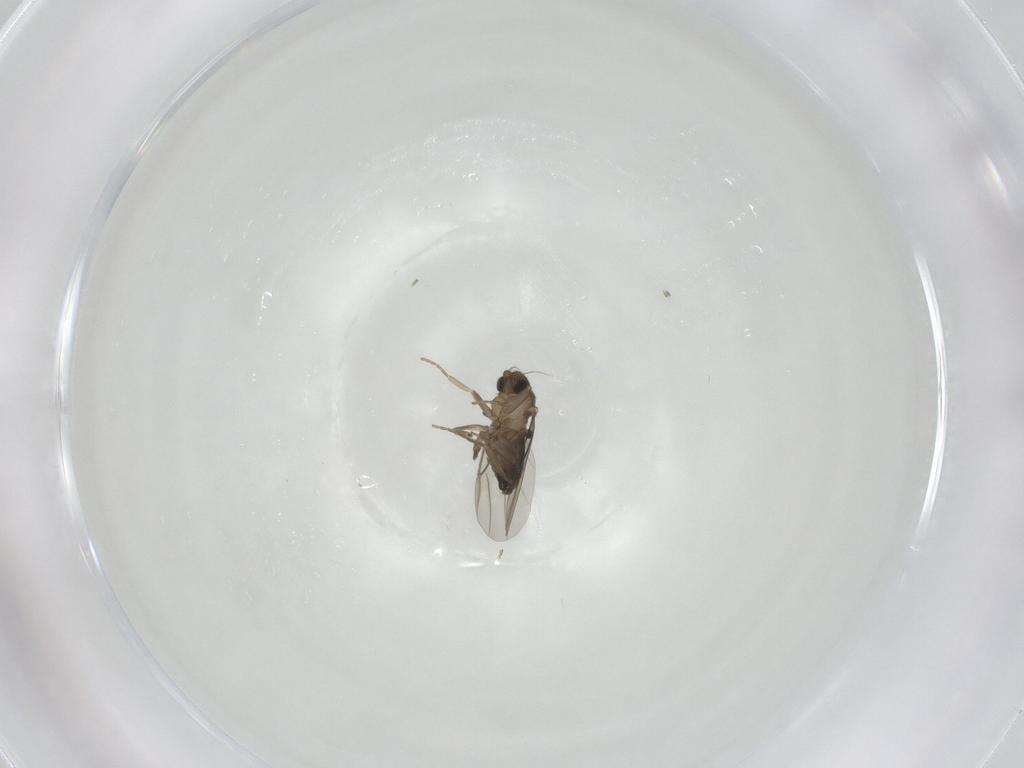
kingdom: Animalia
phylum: Arthropoda
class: Insecta
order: Diptera
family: Phoridae
